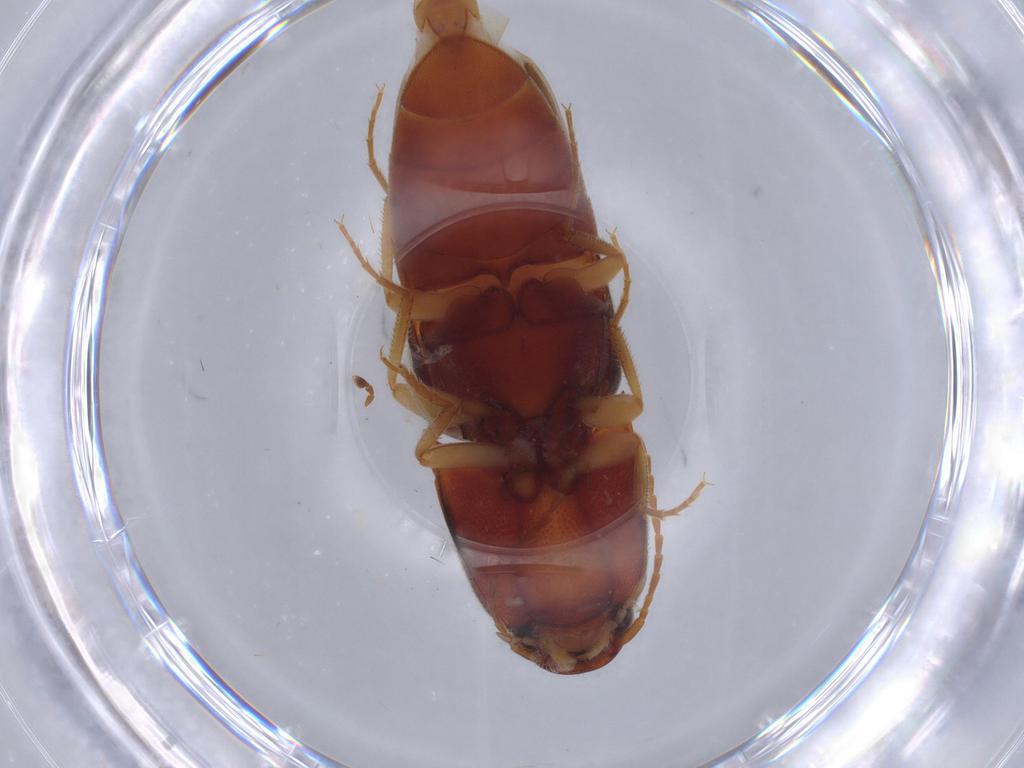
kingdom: Animalia
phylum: Arthropoda
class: Insecta
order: Coleoptera
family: Elateridae
